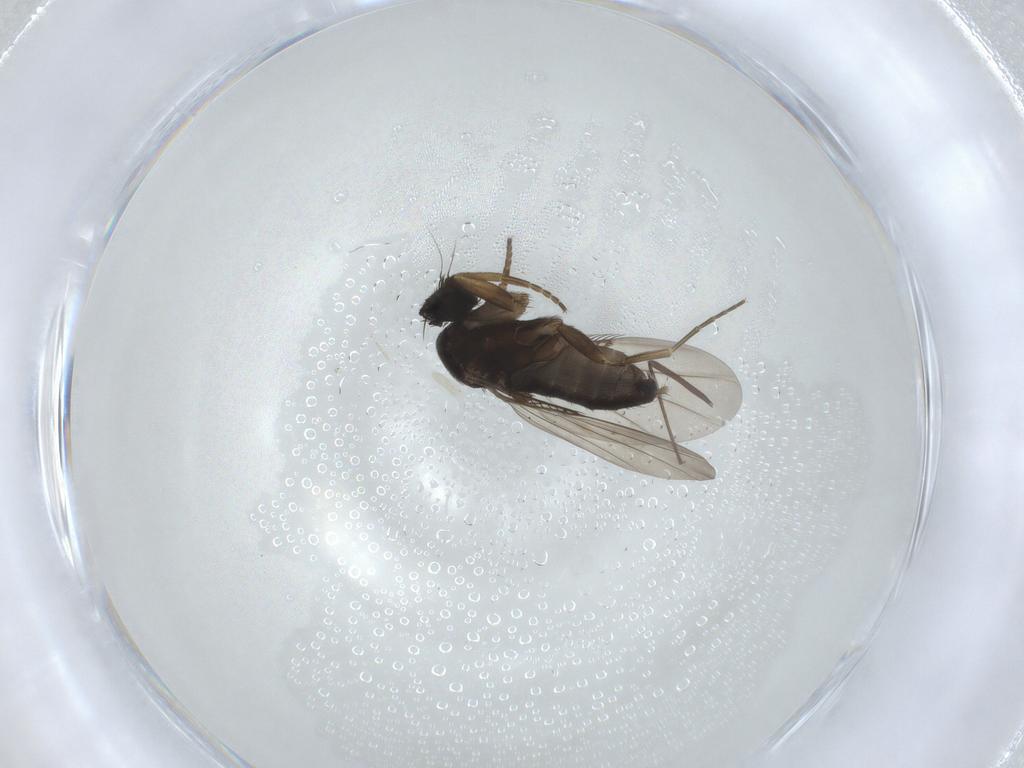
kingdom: Animalia
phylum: Arthropoda
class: Insecta
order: Diptera
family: Phoridae
